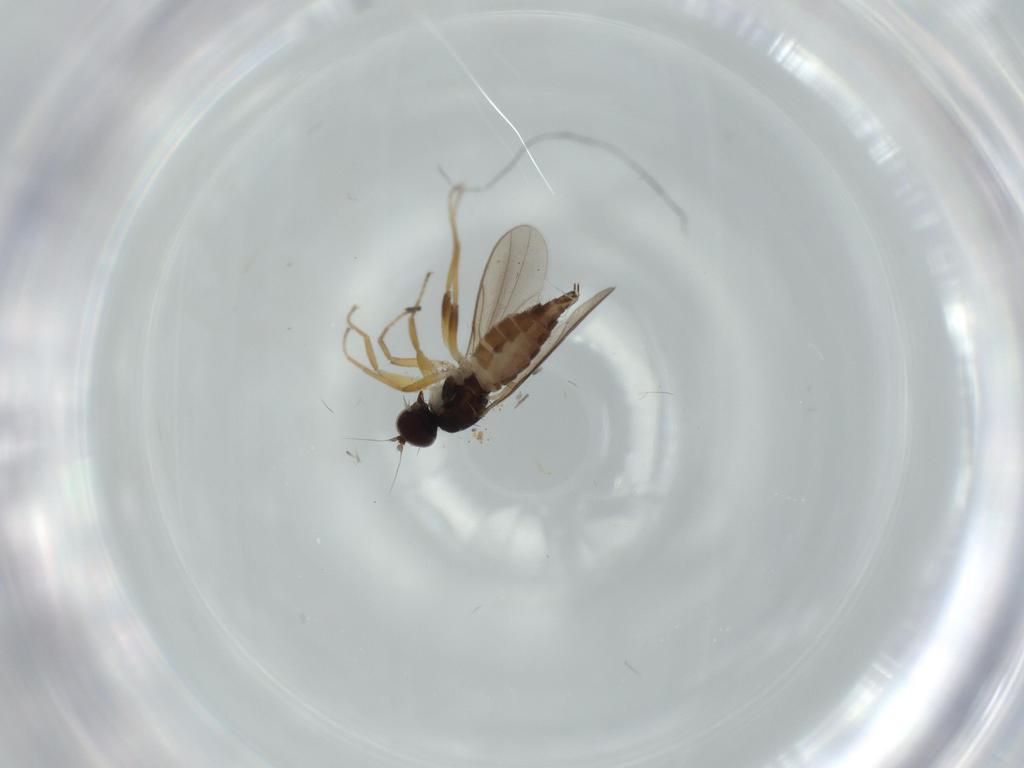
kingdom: Animalia
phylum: Arthropoda
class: Insecta
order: Diptera
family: Hybotidae
